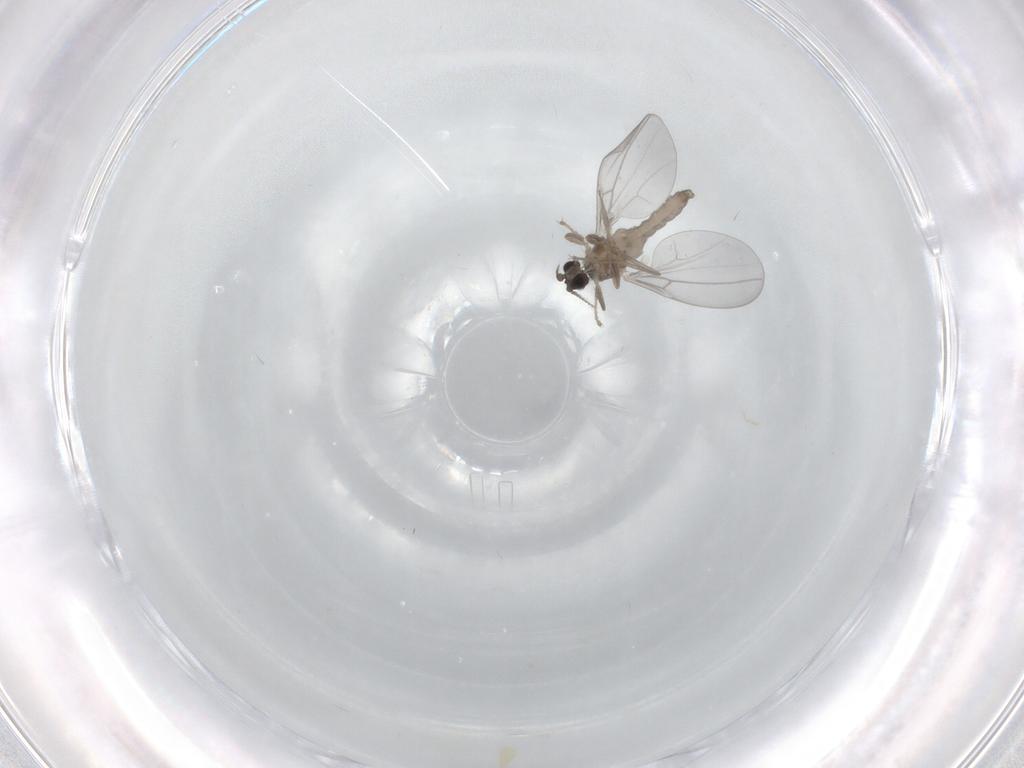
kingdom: Animalia
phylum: Arthropoda
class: Insecta
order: Diptera
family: Cecidomyiidae
